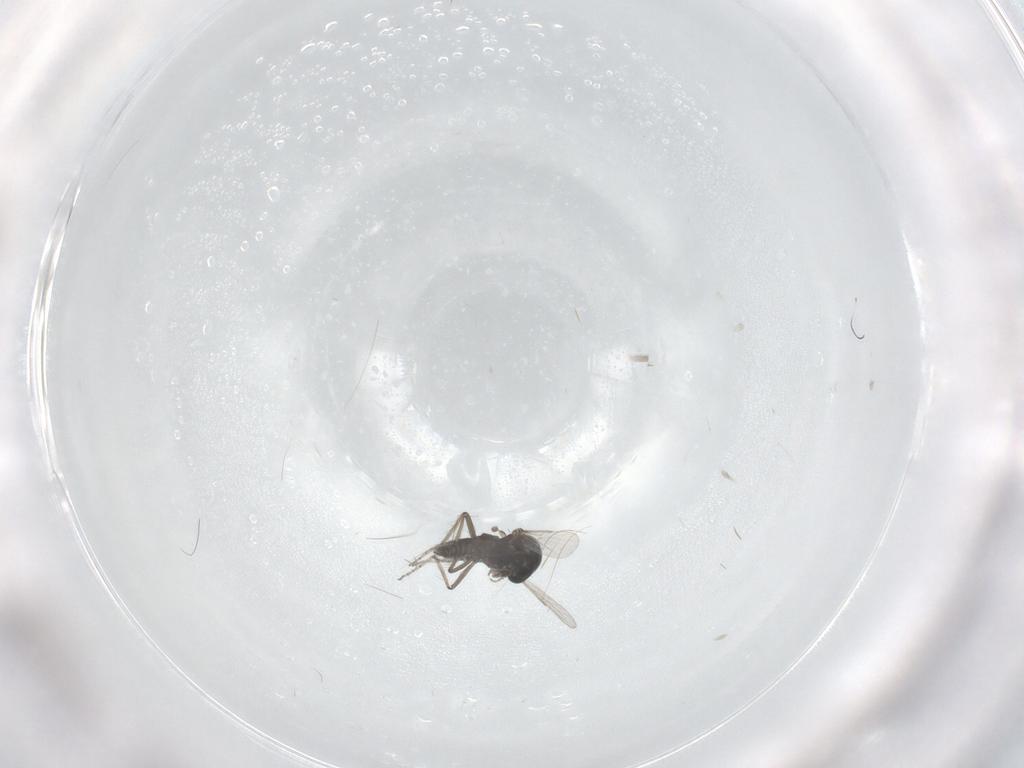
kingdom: Animalia
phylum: Arthropoda
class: Insecta
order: Diptera
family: Ceratopogonidae
